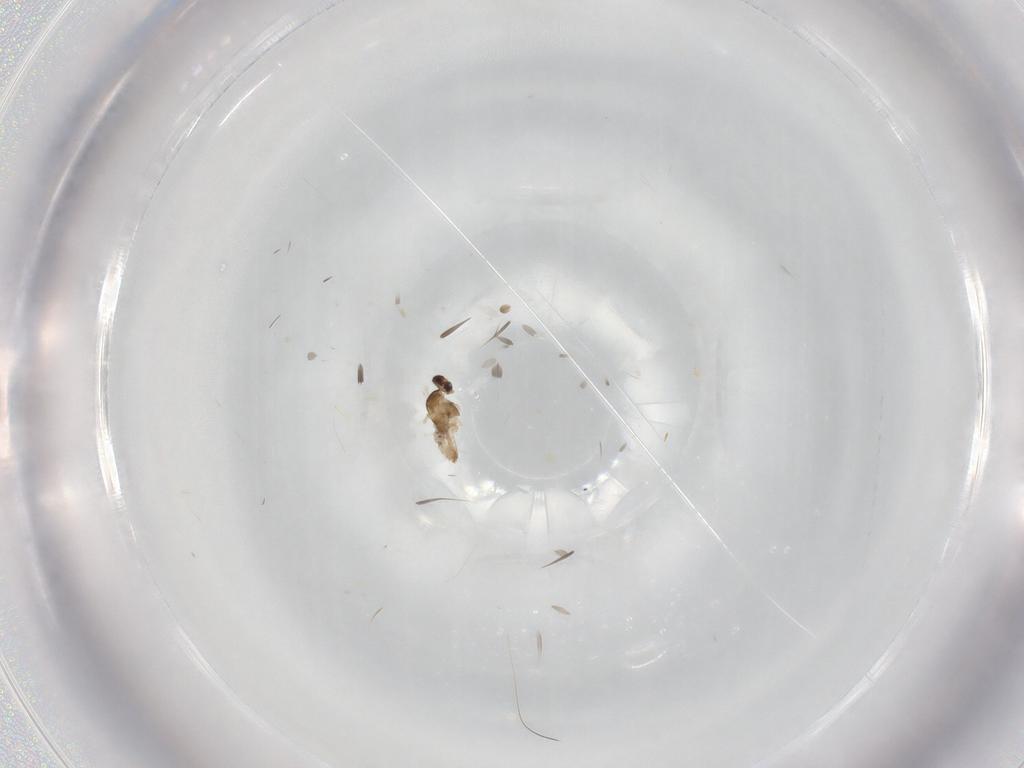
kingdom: Animalia
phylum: Arthropoda
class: Insecta
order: Diptera
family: Cecidomyiidae
